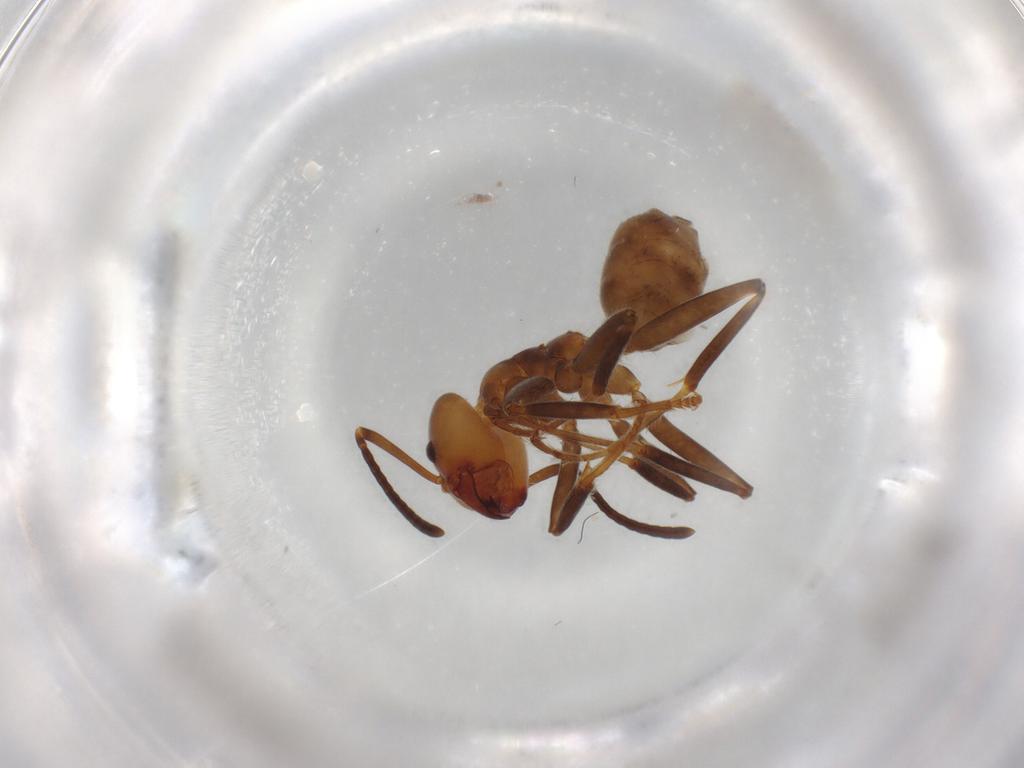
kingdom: Animalia
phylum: Arthropoda
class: Insecta
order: Hymenoptera
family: Formicidae
